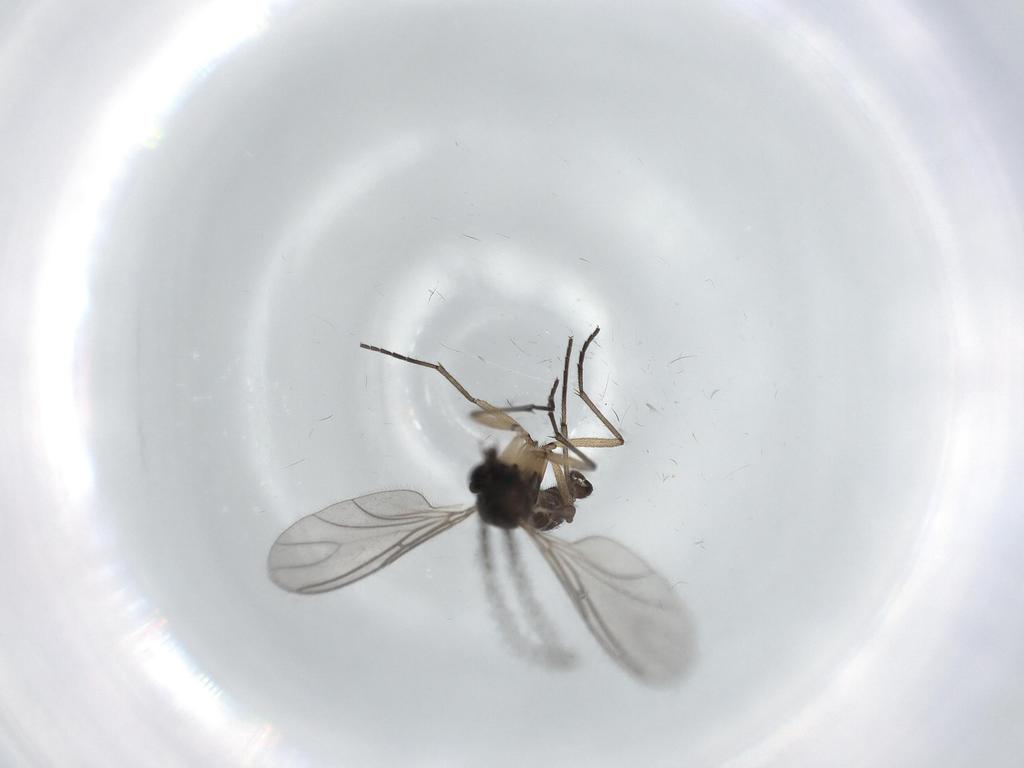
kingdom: Animalia
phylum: Arthropoda
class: Insecta
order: Diptera
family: Sciaridae
